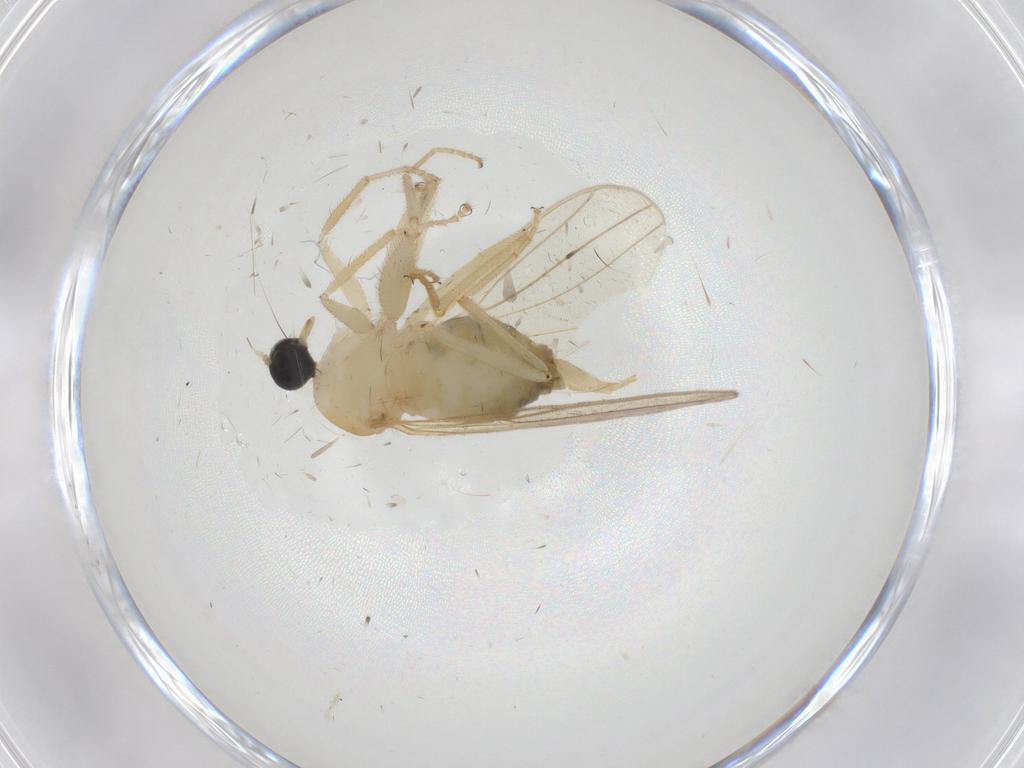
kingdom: Animalia
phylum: Arthropoda
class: Insecta
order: Diptera
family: Hybotidae
